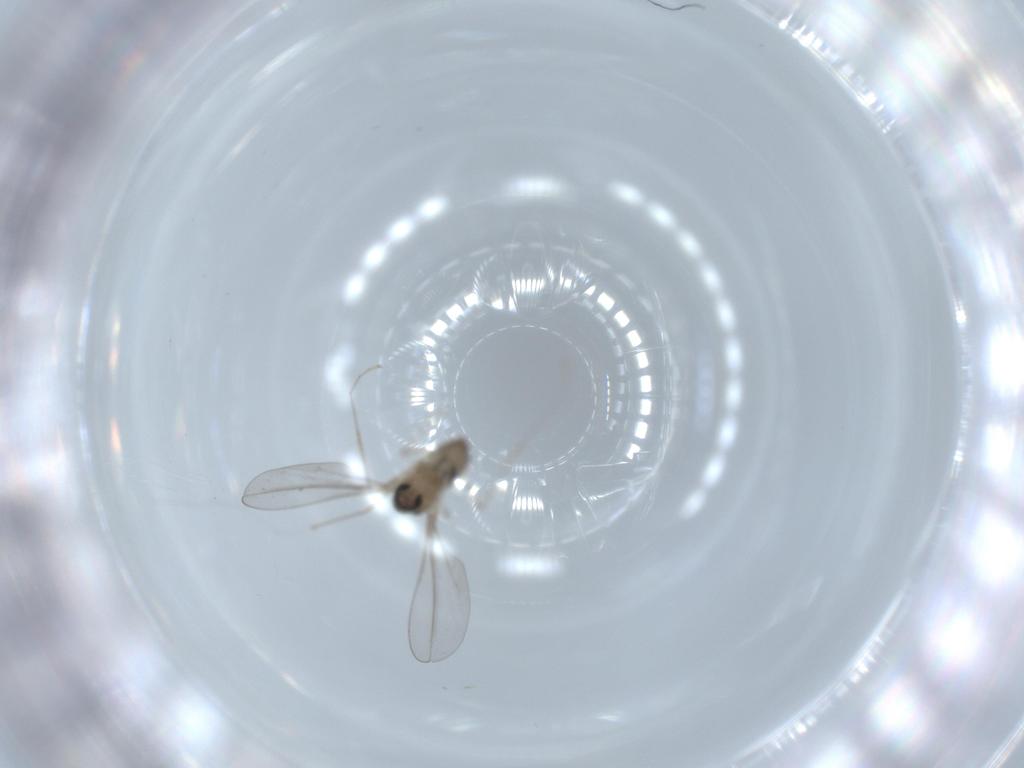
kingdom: Animalia
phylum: Arthropoda
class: Insecta
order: Diptera
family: Cecidomyiidae
